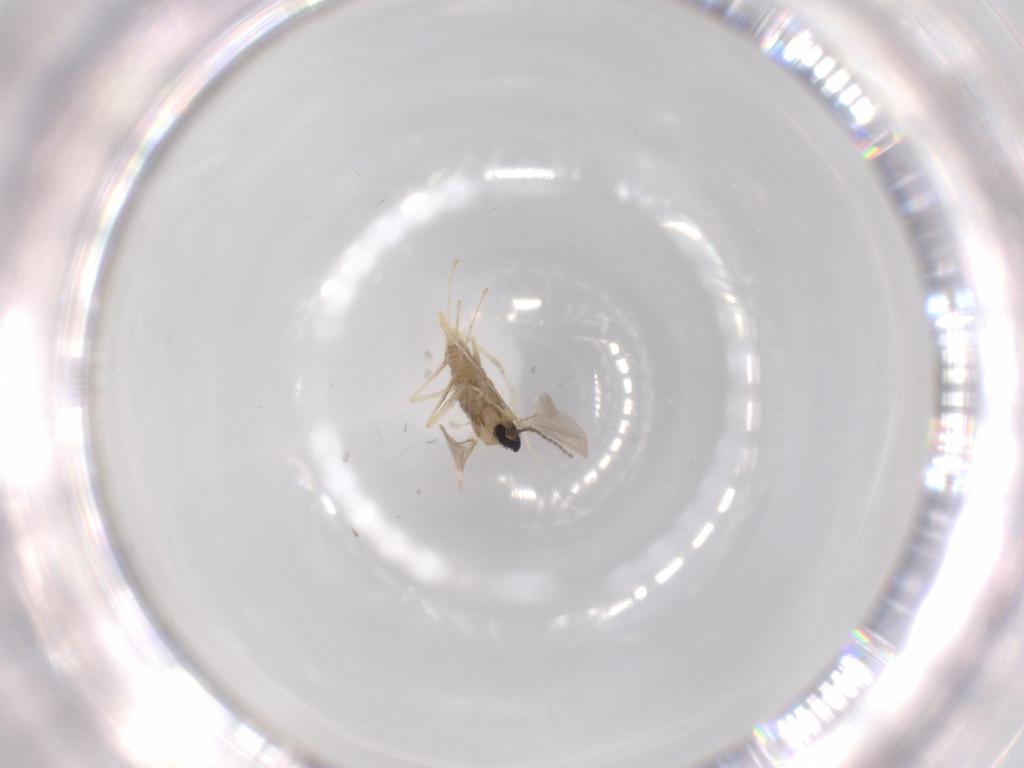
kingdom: Animalia
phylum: Arthropoda
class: Insecta
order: Diptera
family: Cecidomyiidae
